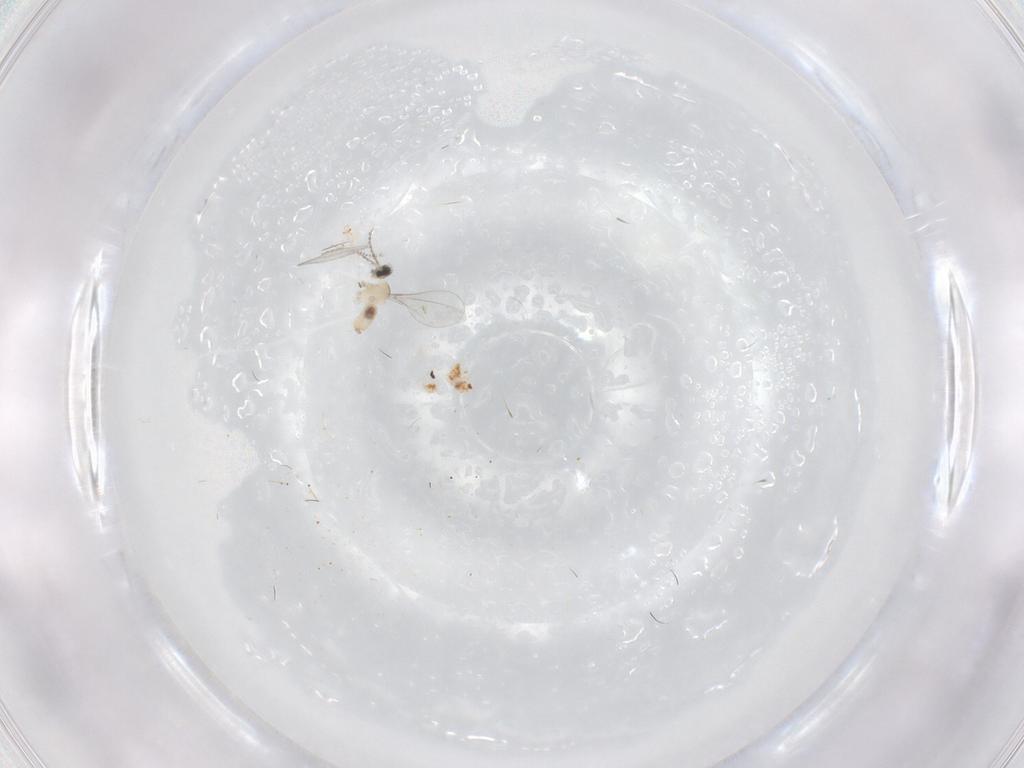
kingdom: Animalia
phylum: Arthropoda
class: Insecta
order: Diptera
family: Cecidomyiidae
